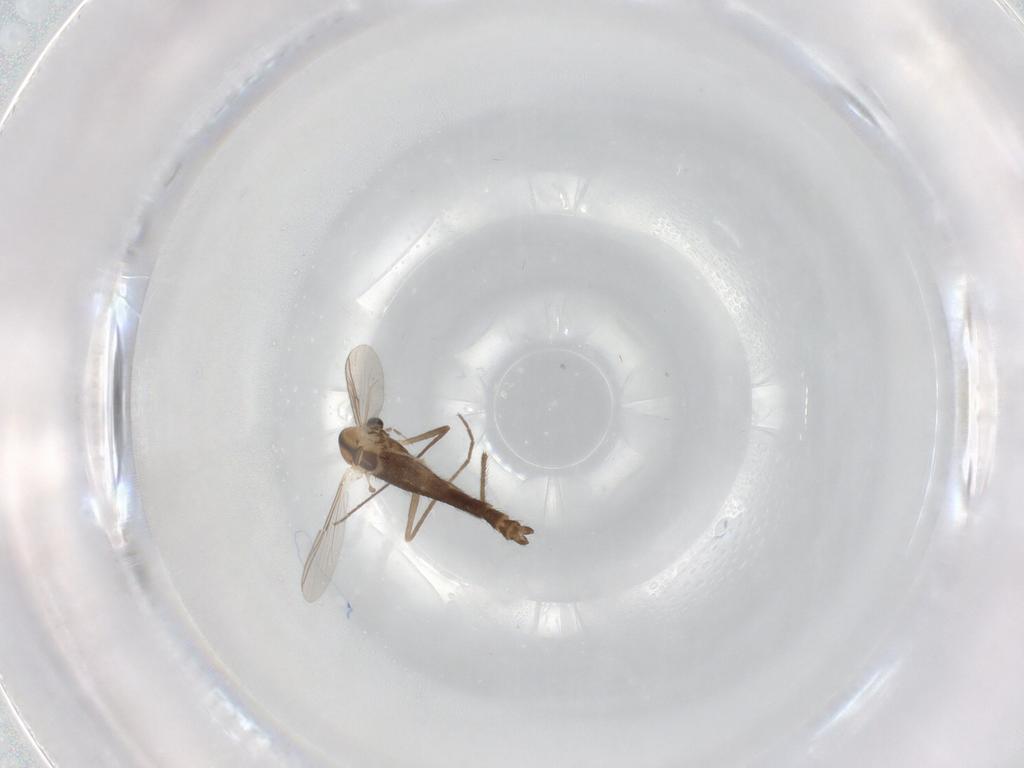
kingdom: Animalia
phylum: Arthropoda
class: Insecta
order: Diptera
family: Ceratopogonidae
